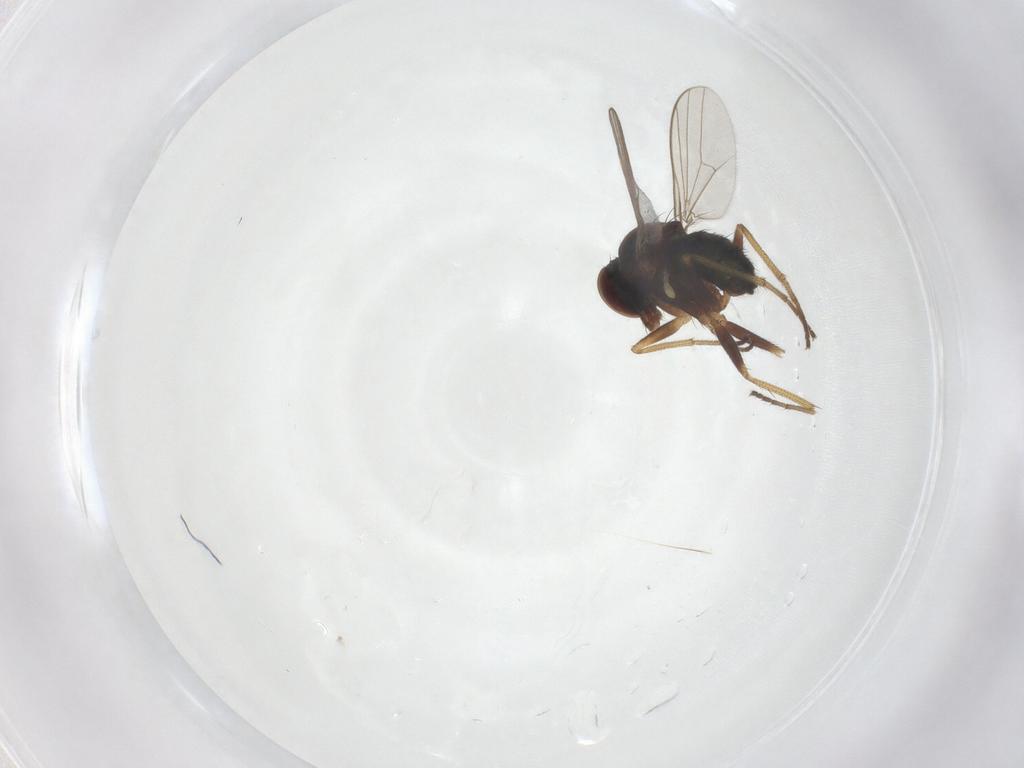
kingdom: Animalia
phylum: Arthropoda
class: Insecta
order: Diptera
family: Dolichopodidae
